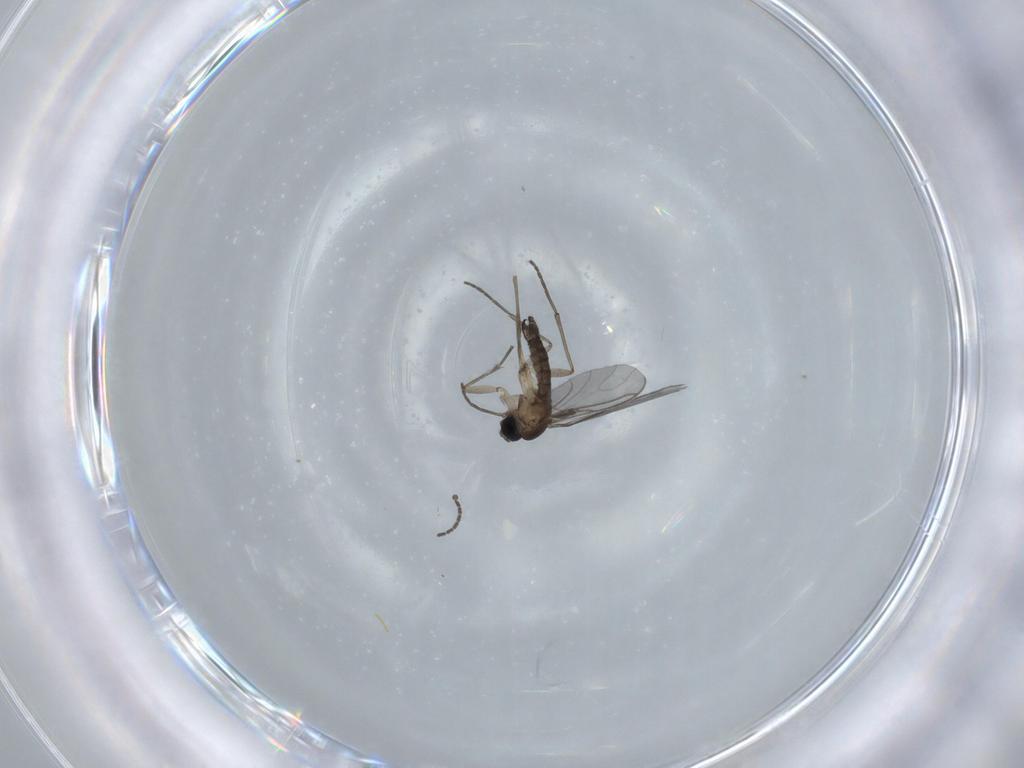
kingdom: Animalia
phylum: Arthropoda
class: Insecta
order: Diptera
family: Sciaridae
